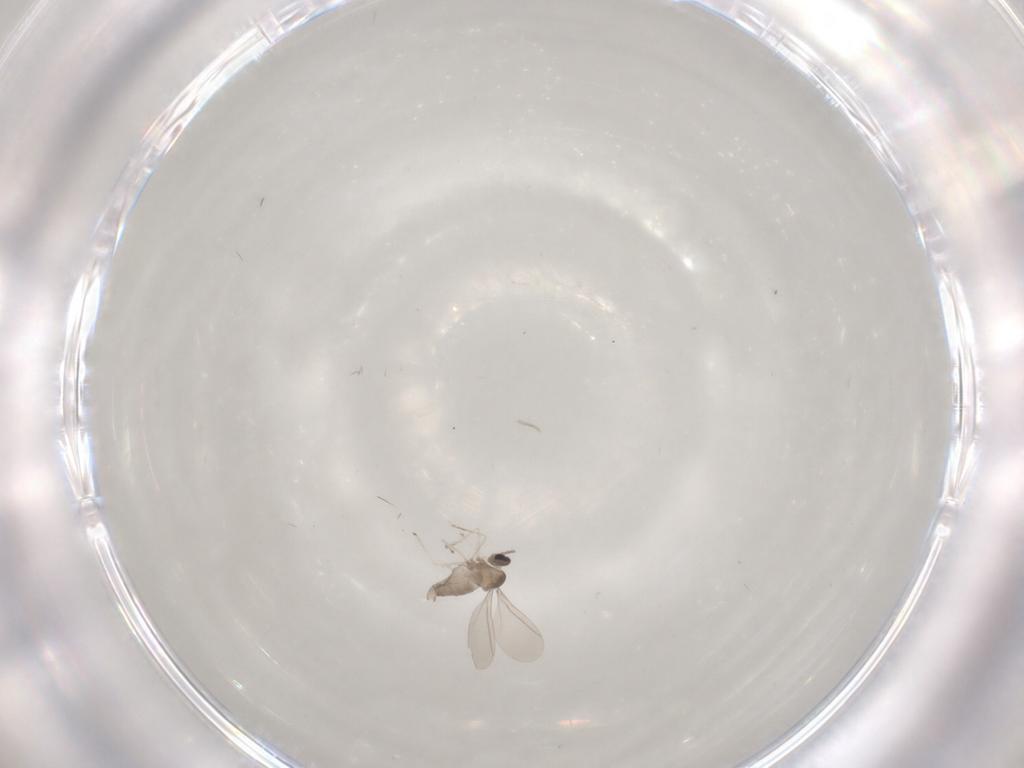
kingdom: Animalia
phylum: Arthropoda
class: Insecta
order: Diptera
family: Sciaridae
